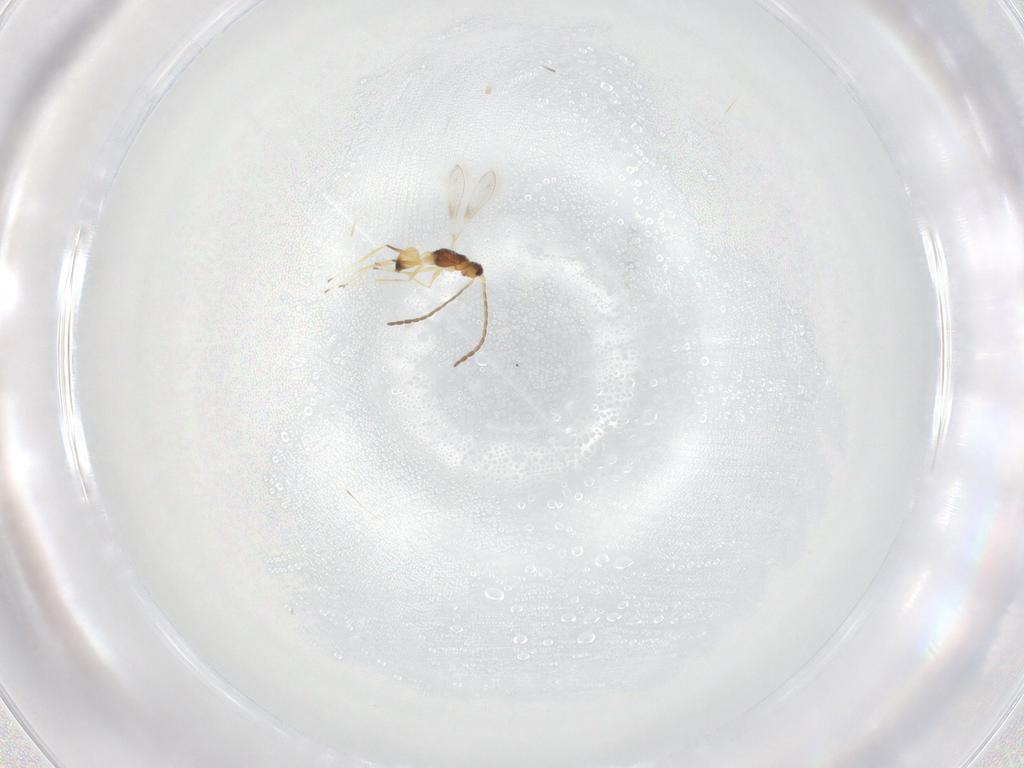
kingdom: Animalia
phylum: Arthropoda
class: Insecta
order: Hymenoptera
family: Mymaridae
